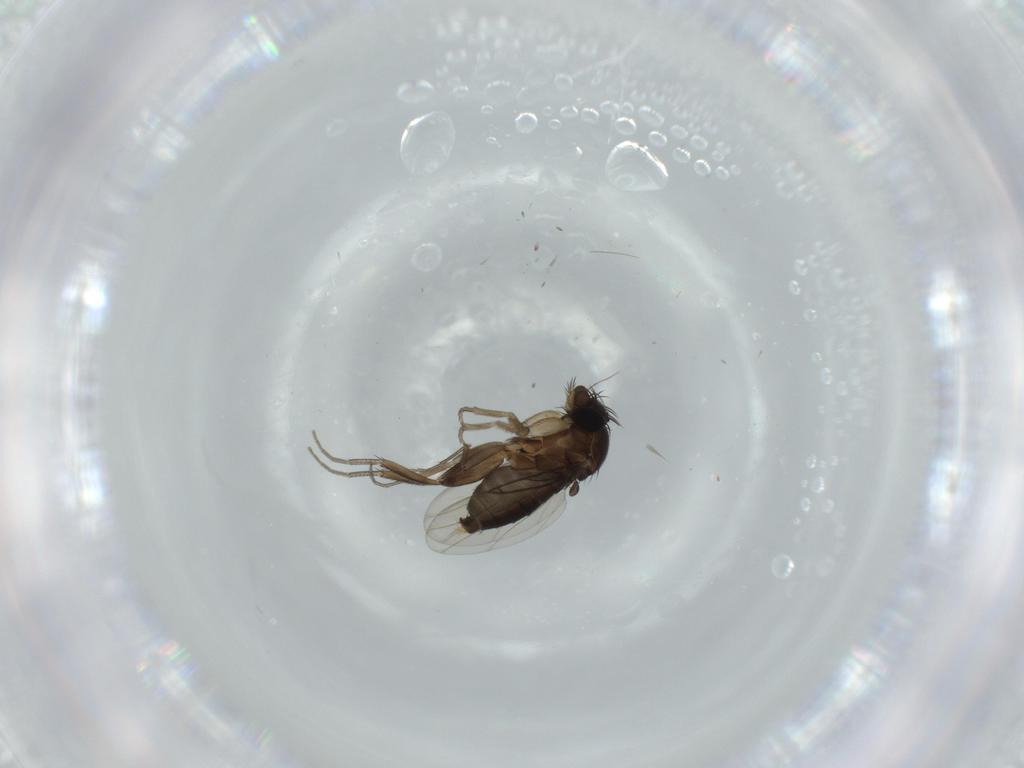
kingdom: Animalia
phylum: Arthropoda
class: Insecta
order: Diptera
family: Phoridae
